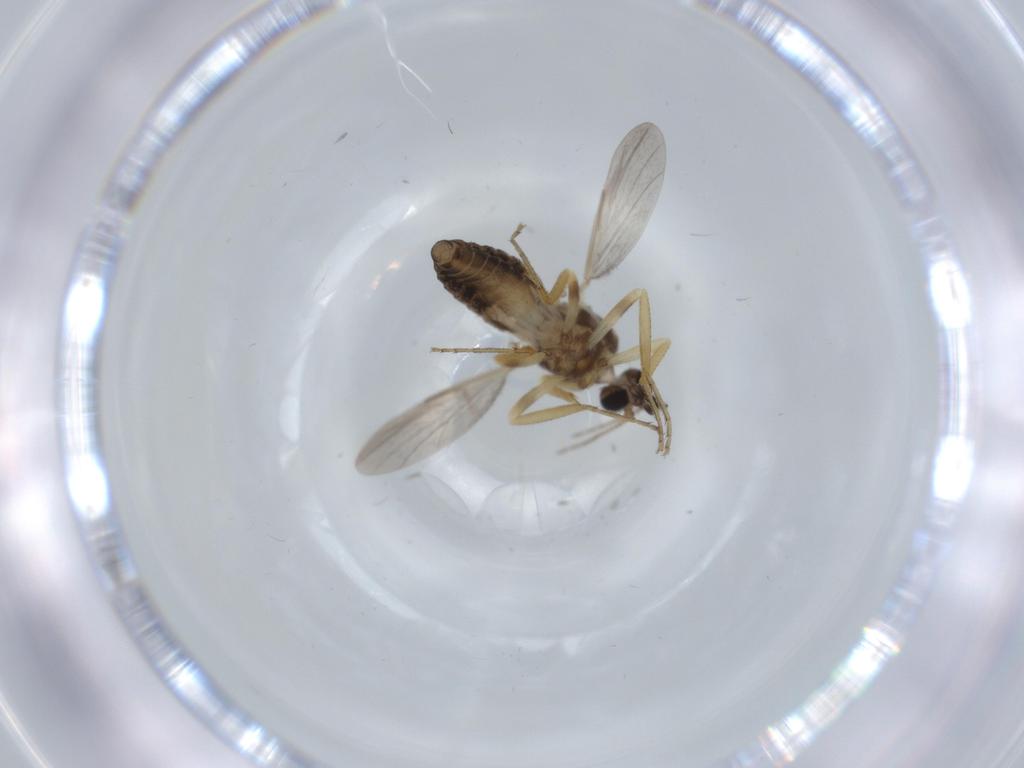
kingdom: Animalia
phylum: Arthropoda
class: Insecta
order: Diptera
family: Ceratopogonidae
